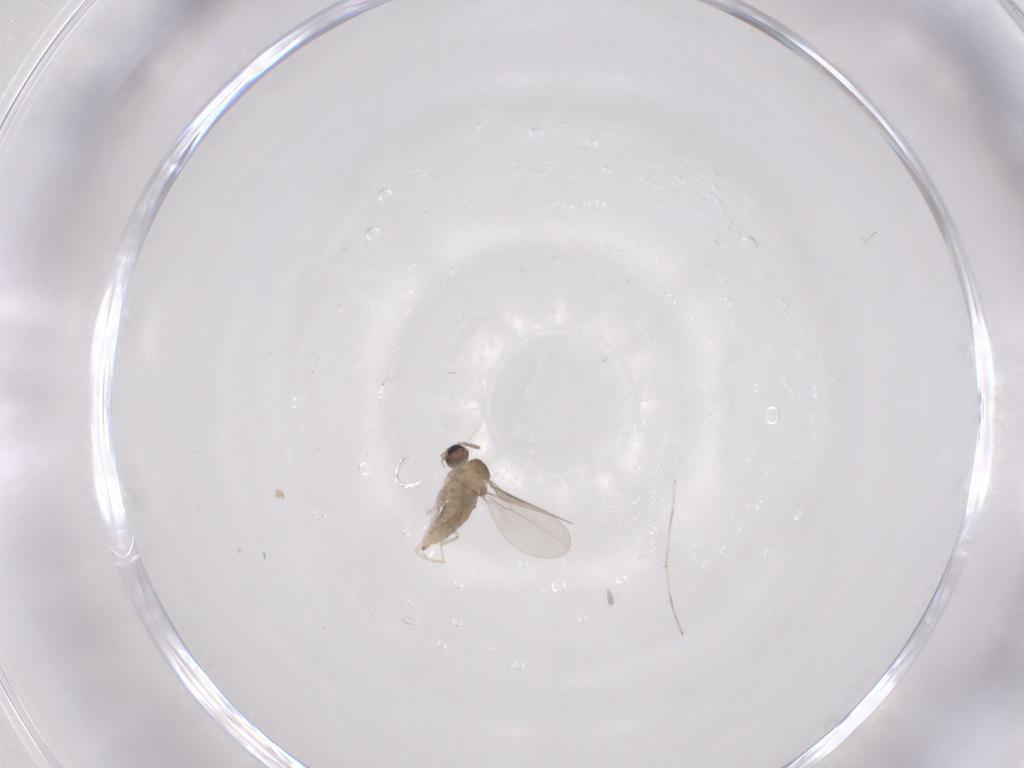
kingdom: Animalia
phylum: Arthropoda
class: Insecta
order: Diptera
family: Cecidomyiidae
